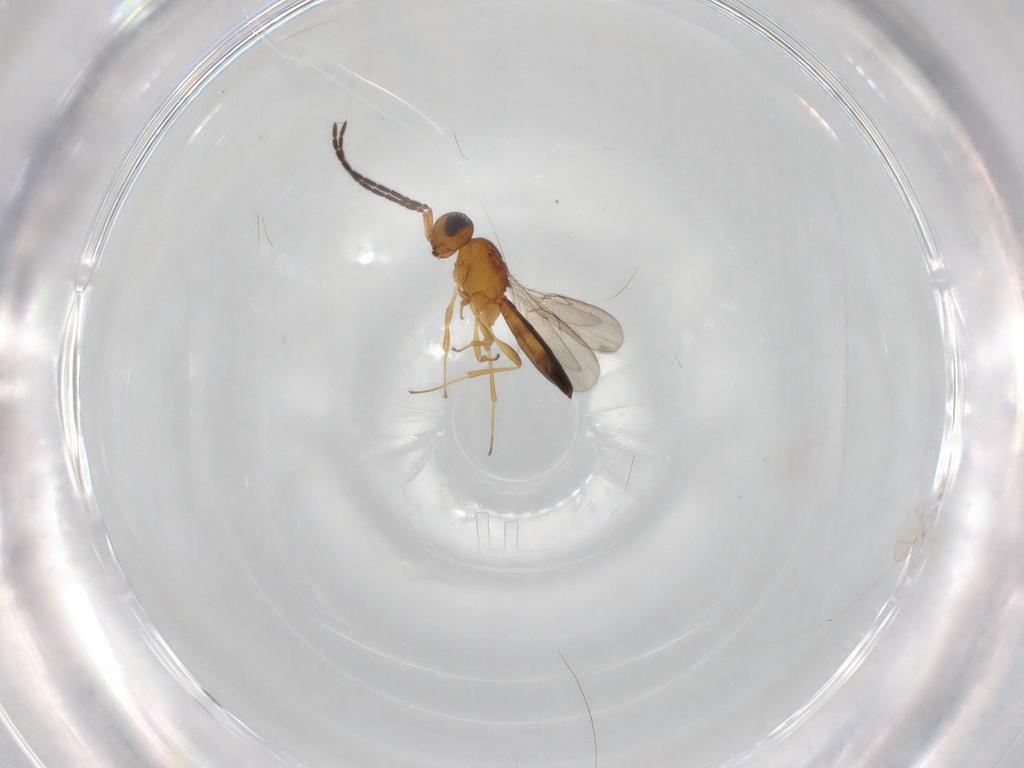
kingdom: Animalia
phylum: Arthropoda
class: Insecta
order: Hymenoptera
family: Scelionidae
